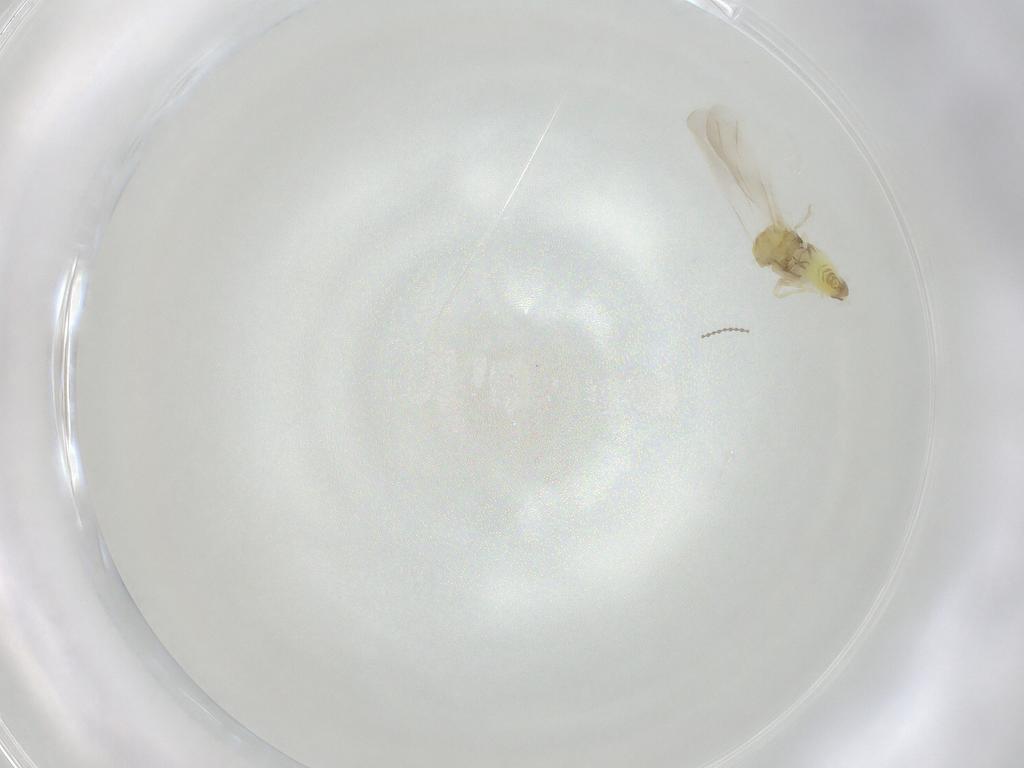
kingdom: Animalia
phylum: Arthropoda
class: Insecta
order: Hemiptera
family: Aleyrodidae
